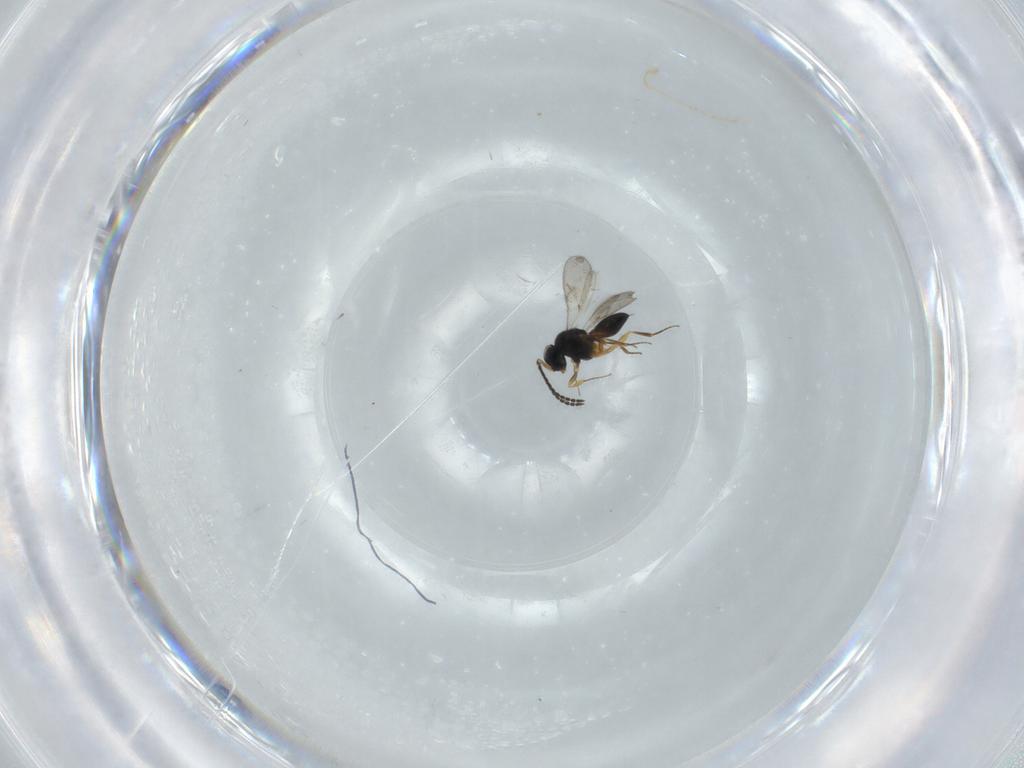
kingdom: Animalia
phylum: Arthropoda
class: Insecta
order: Hymenoptera
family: Scelionidae
